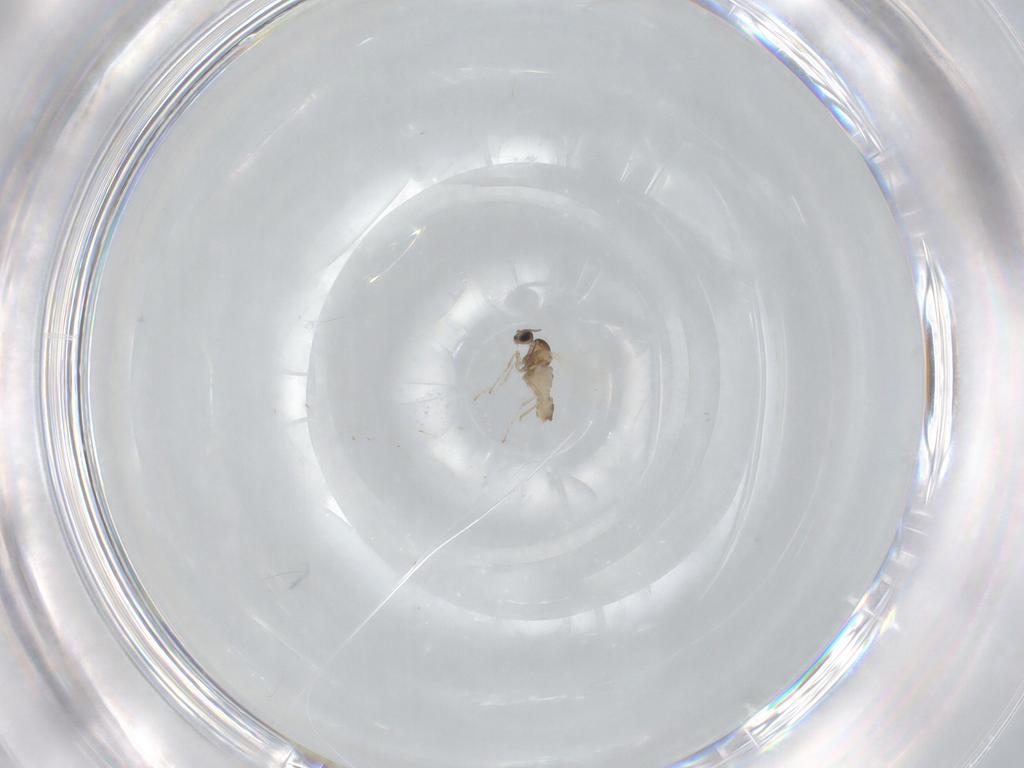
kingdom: Animalia
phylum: Arthropoda
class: Insecta
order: Diptera
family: Cecidomyiidae
